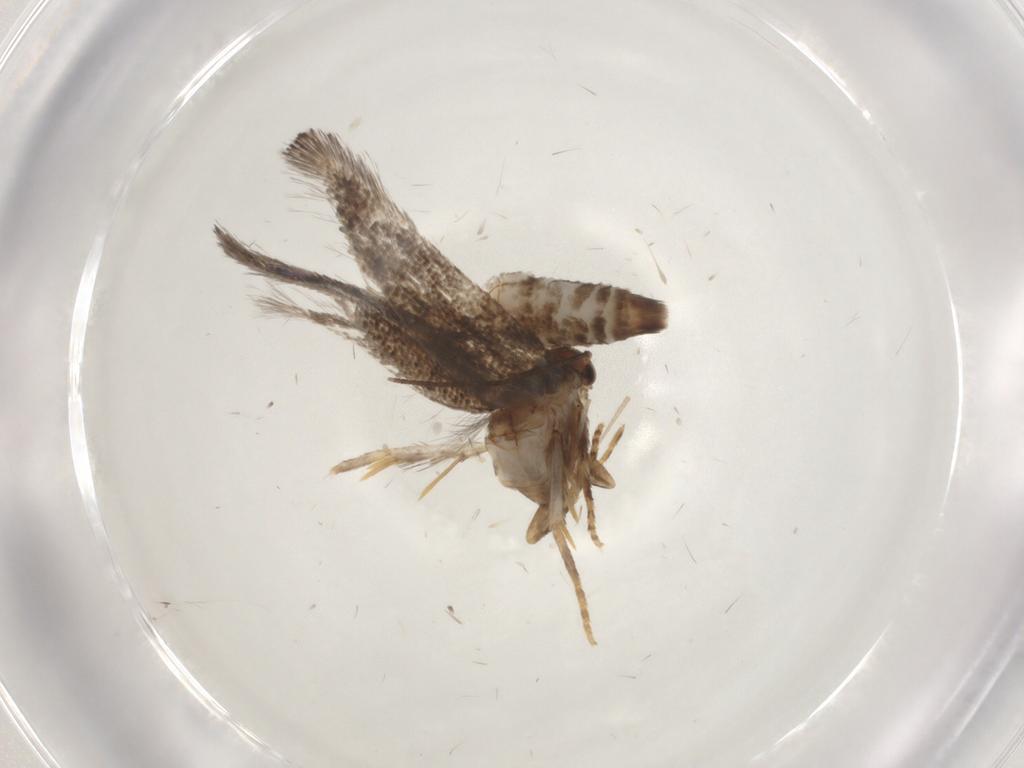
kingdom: Animalia
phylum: Arthropoda
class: Insecta
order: Lepidoptera
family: Elachistidae
